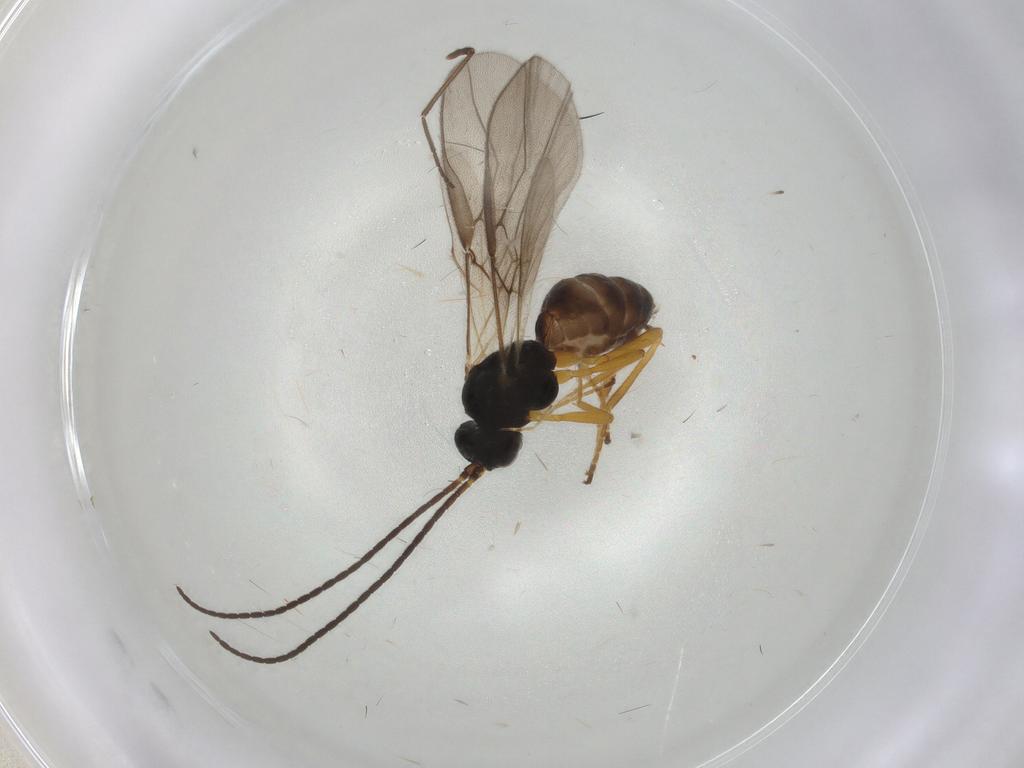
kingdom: Animalia
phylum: Arthropoda
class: Insecta
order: Hymenoptera
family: Braconidae
